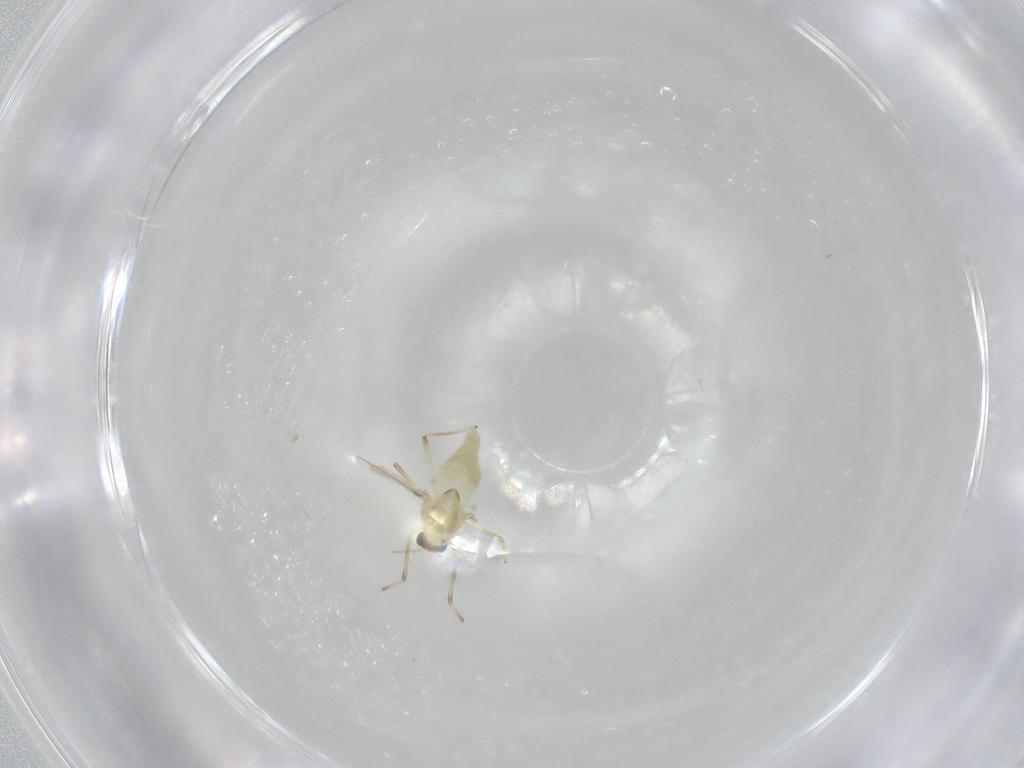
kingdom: Animalia
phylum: Arthropoda
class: Insecta
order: Diptera
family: Chironomidae
